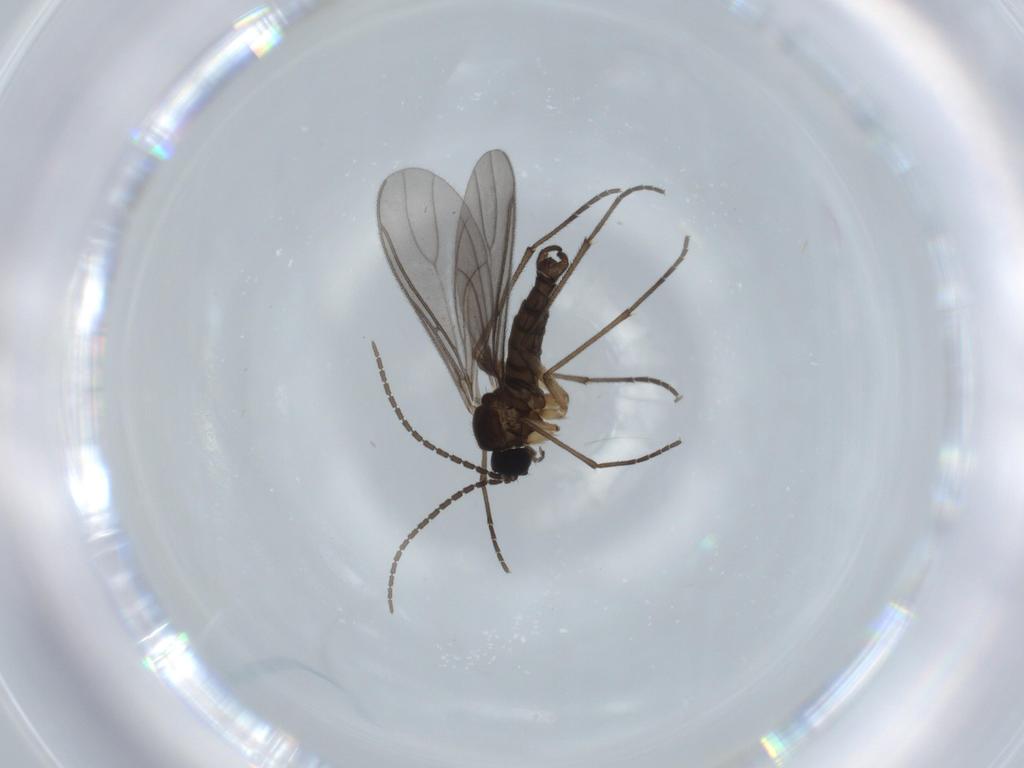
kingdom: Animalia
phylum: Arthropoda
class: Insecta
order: Diptera
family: Sciaridae
